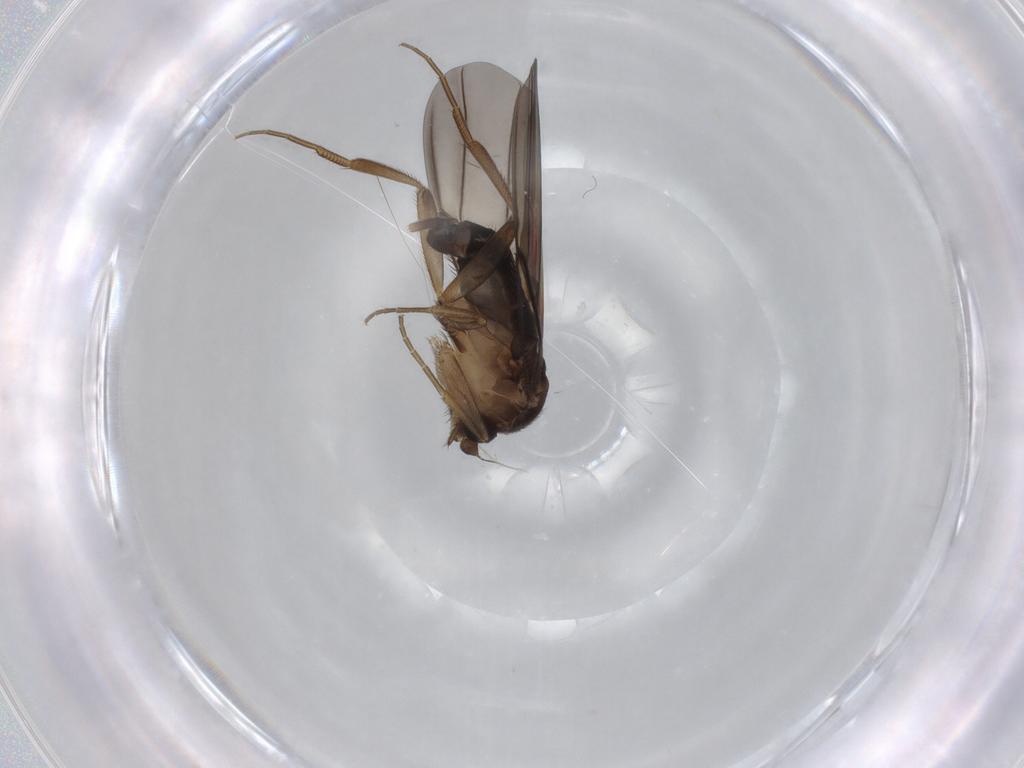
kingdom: Animalia
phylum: Arthropoda
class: Insecta
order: Diptera
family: Phoridae
